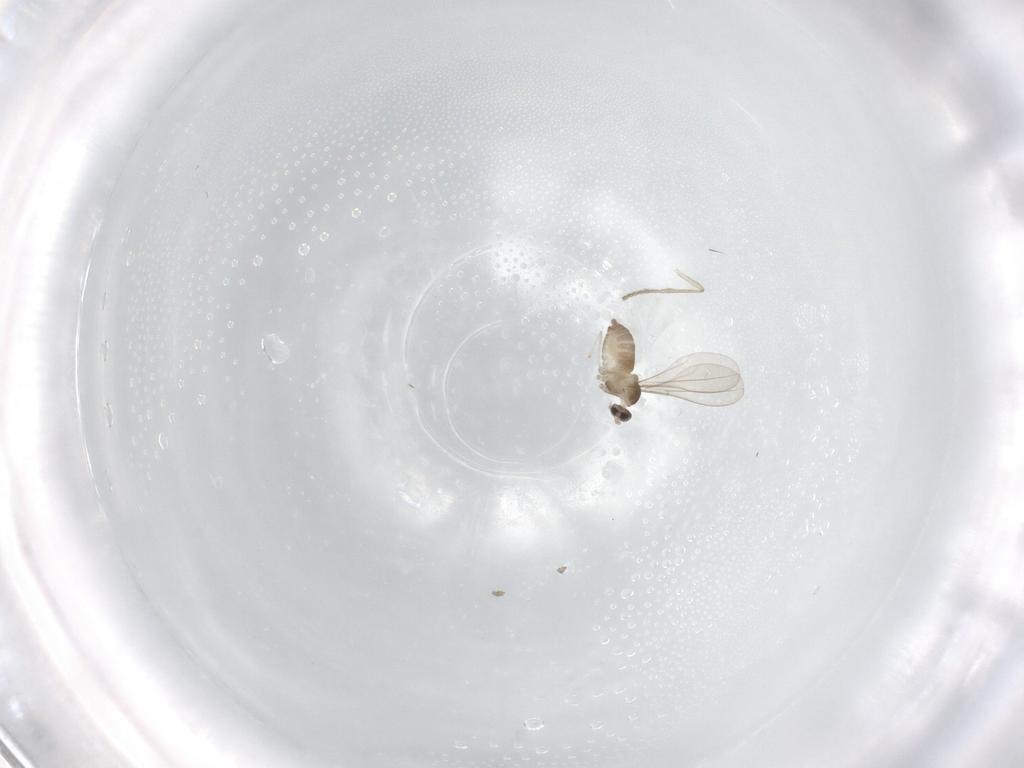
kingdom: Animalia
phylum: Arthropoda
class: Insecta
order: Diptera
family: Cecidomyiidae
